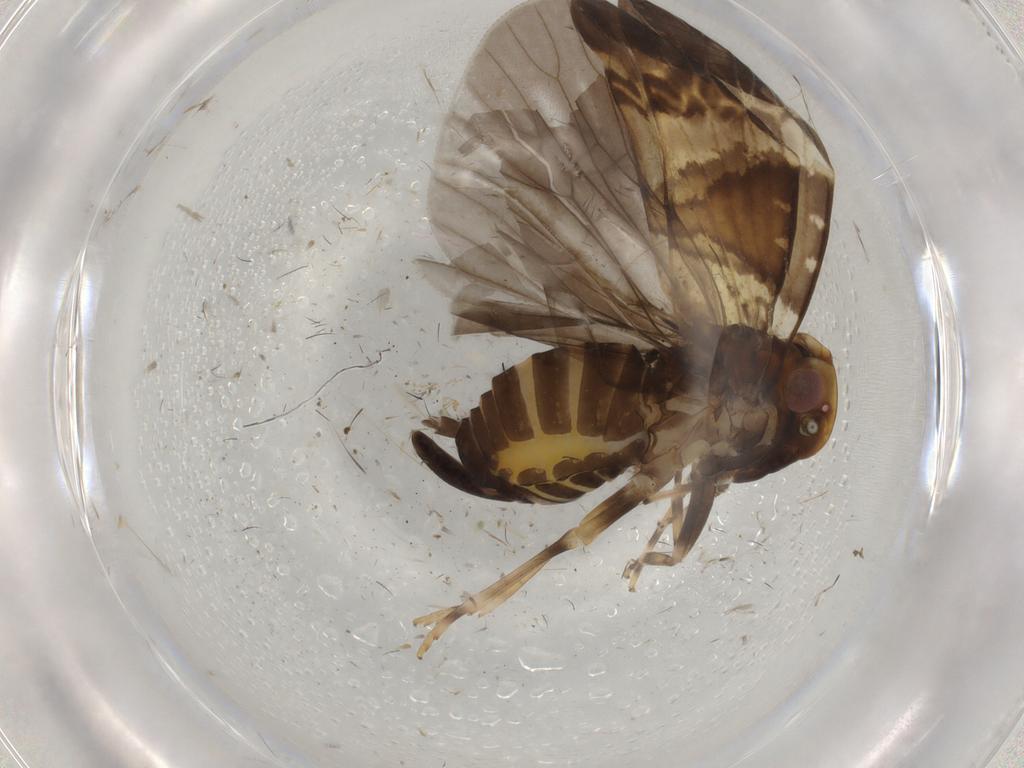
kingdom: Animalia
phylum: Arthropoda
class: Insecta
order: Hemiptera
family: Cixiidae
